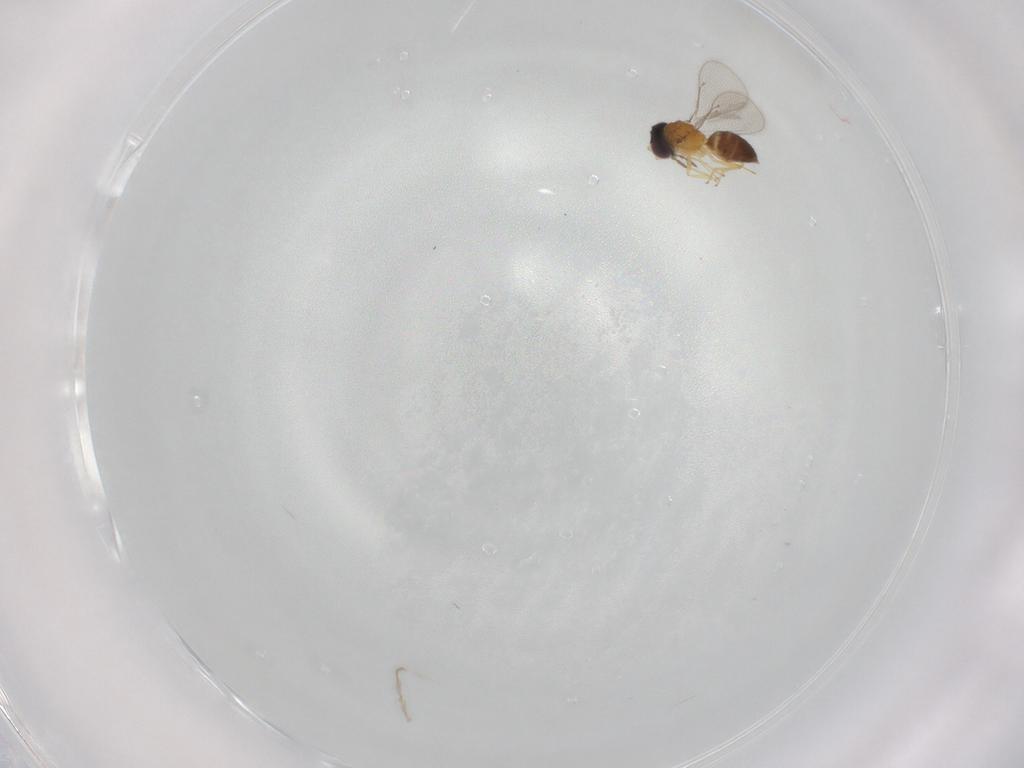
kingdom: Animalia
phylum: Arthropoda
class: Insecta
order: Hymenoptera
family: Eulophidae
